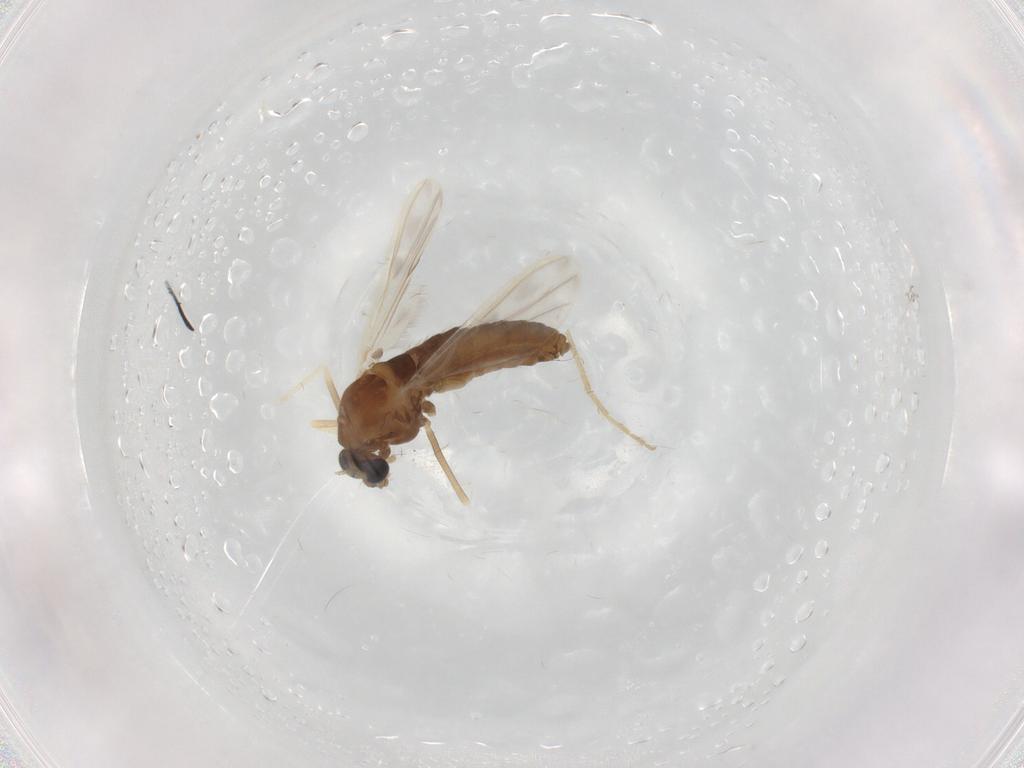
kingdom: Animalia
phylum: Arthropoda
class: Insecta
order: Diptera
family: Chironomidae
